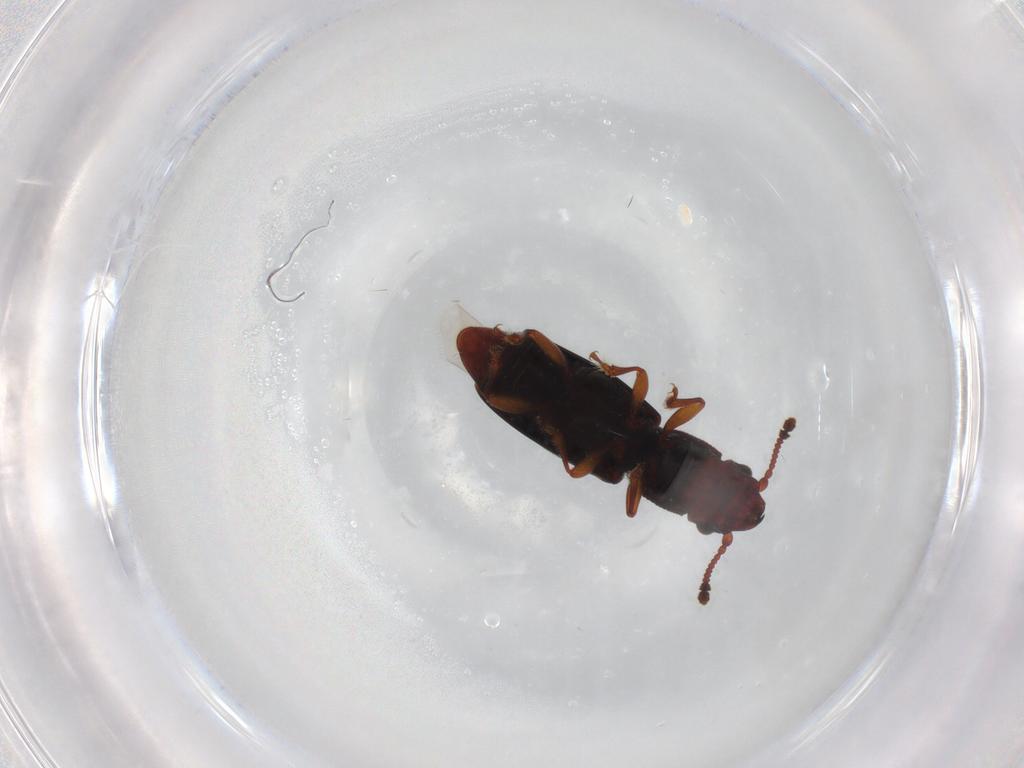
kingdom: Animalia
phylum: Arthropoda
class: Insecta
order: Coleoptera
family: Monotomidae
